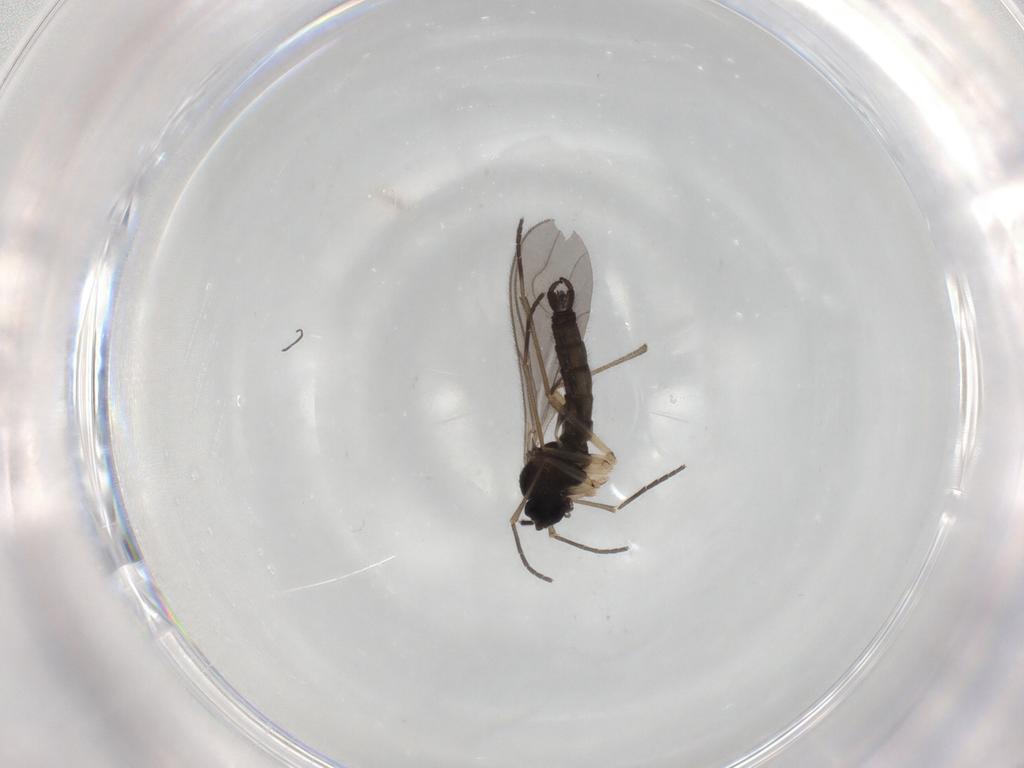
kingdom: Animalia
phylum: Arthropoda
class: Insecta
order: Diptera
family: Sciaridae
